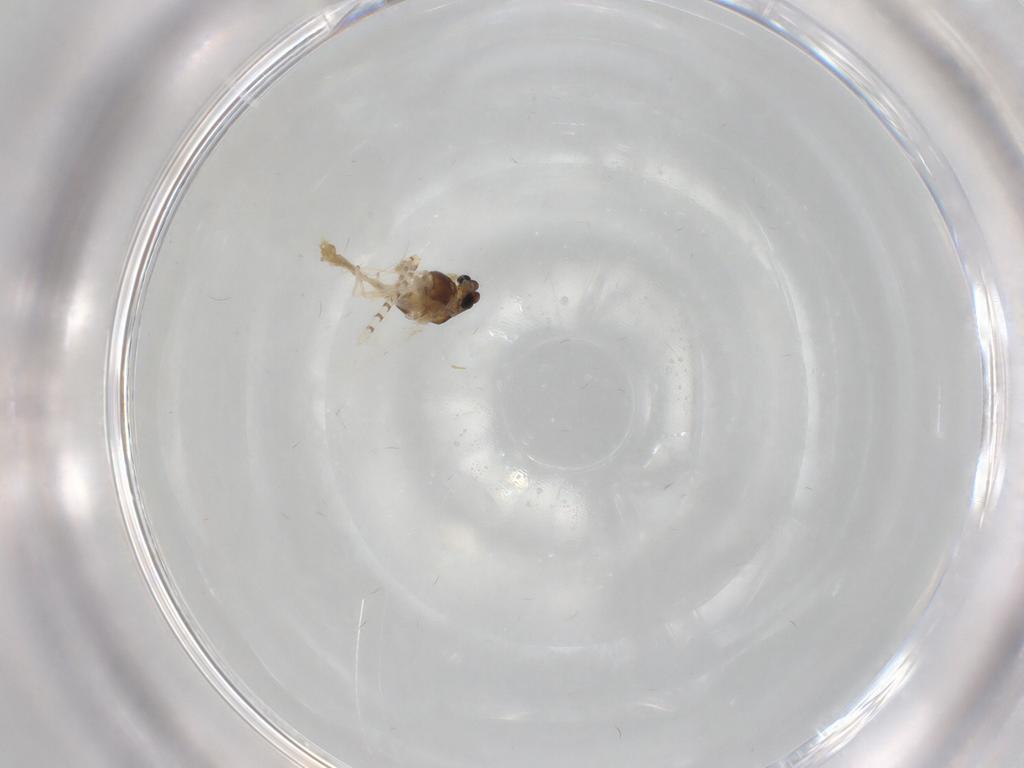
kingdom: Animalia
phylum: Arthropoda
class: Insecta
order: Diptera
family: Chironomidae
